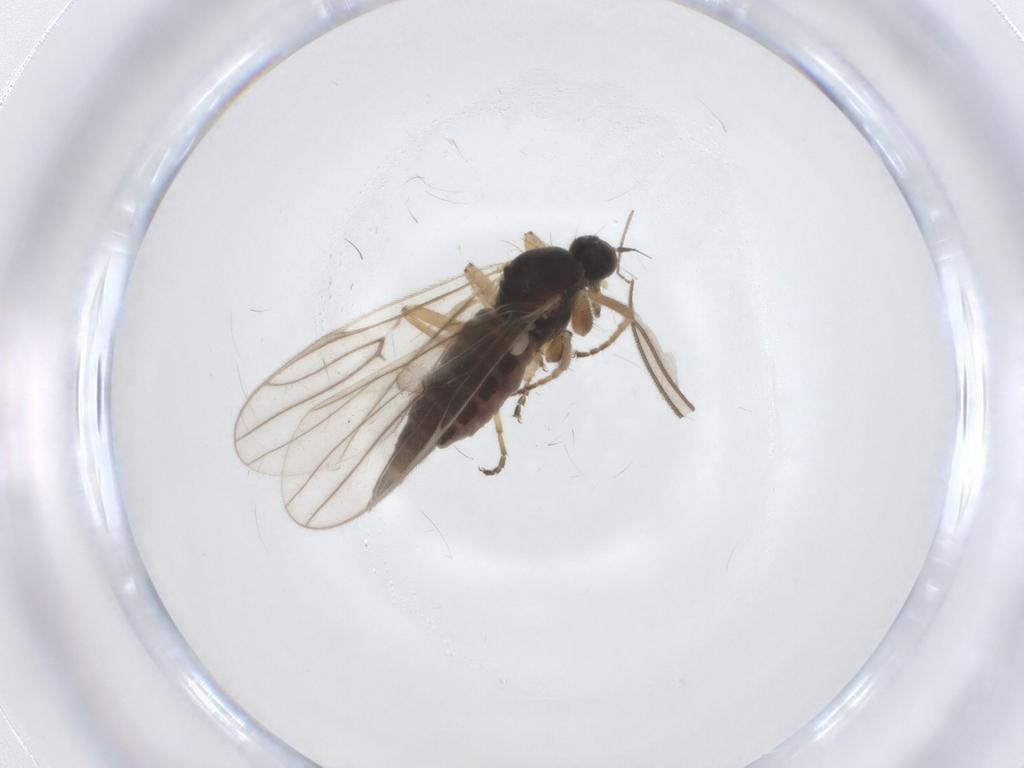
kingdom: Animalia
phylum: Arthropoda
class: Insecta
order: Diptera
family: Hybotidae
